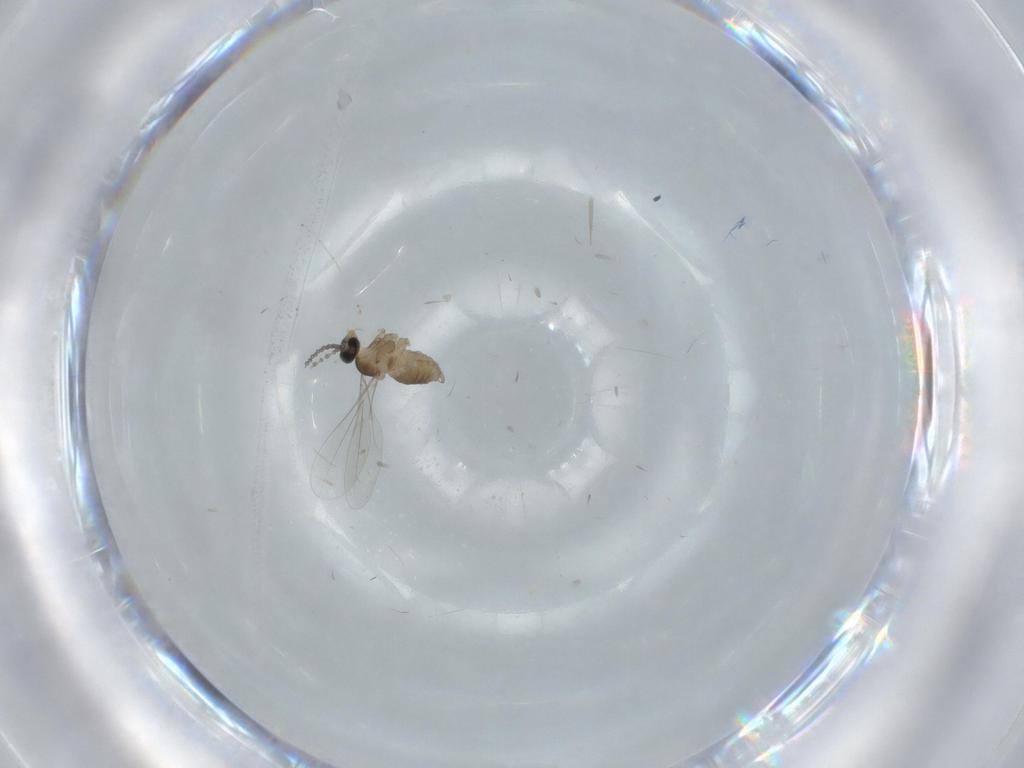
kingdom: Animalia
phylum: Arthropoda
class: Insecta
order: Diptera
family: Cecidomyiidae
